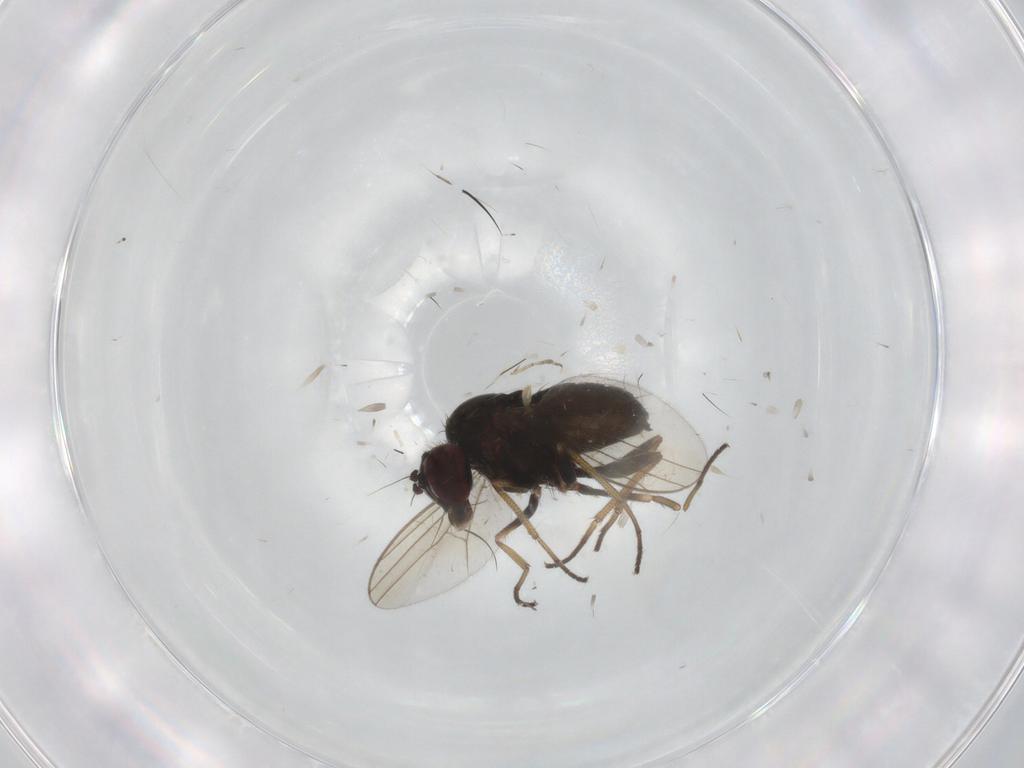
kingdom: Animalia
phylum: Arthropoda
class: Insecta
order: Diptera
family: Dolichopodidae
